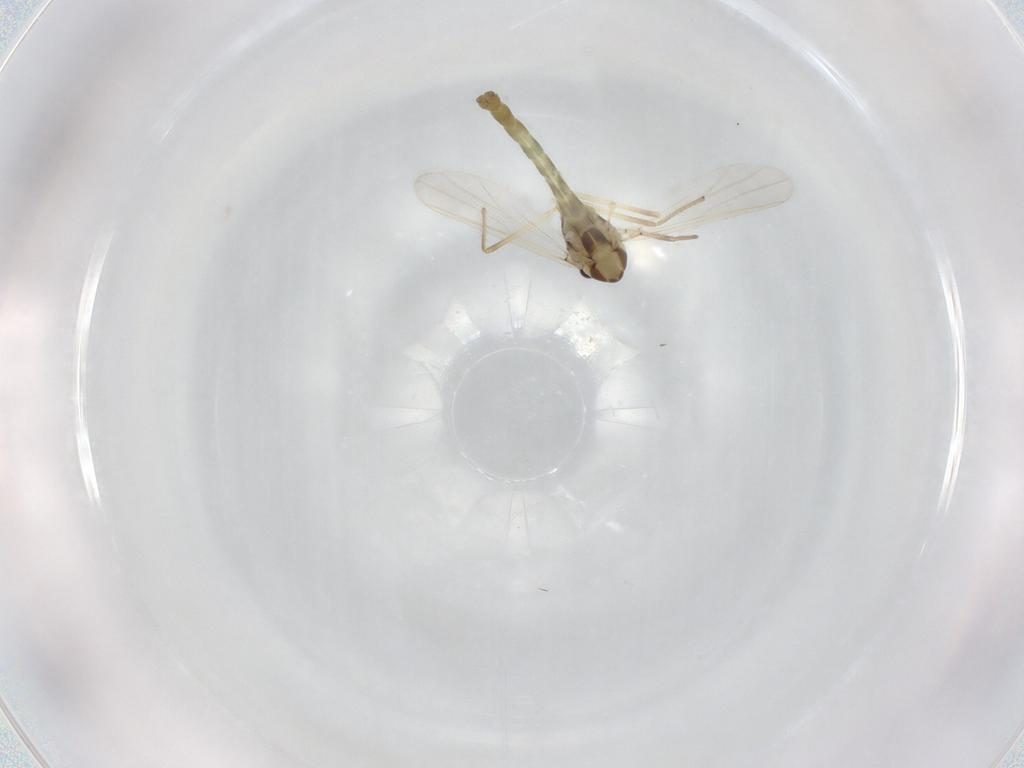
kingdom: Animalia
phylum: Arthropoda
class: Insecta
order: Diptera
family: Chironomidae
